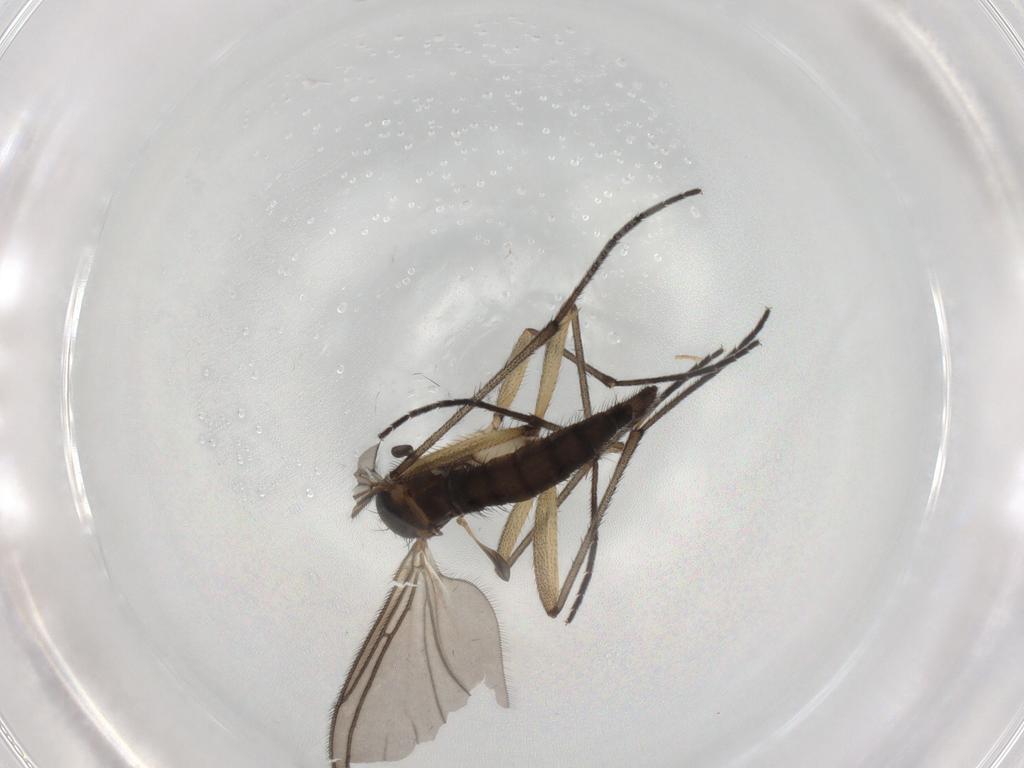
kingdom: Animalia
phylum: Arthropoda
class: Insecta
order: Diptera
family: Sciaridae
